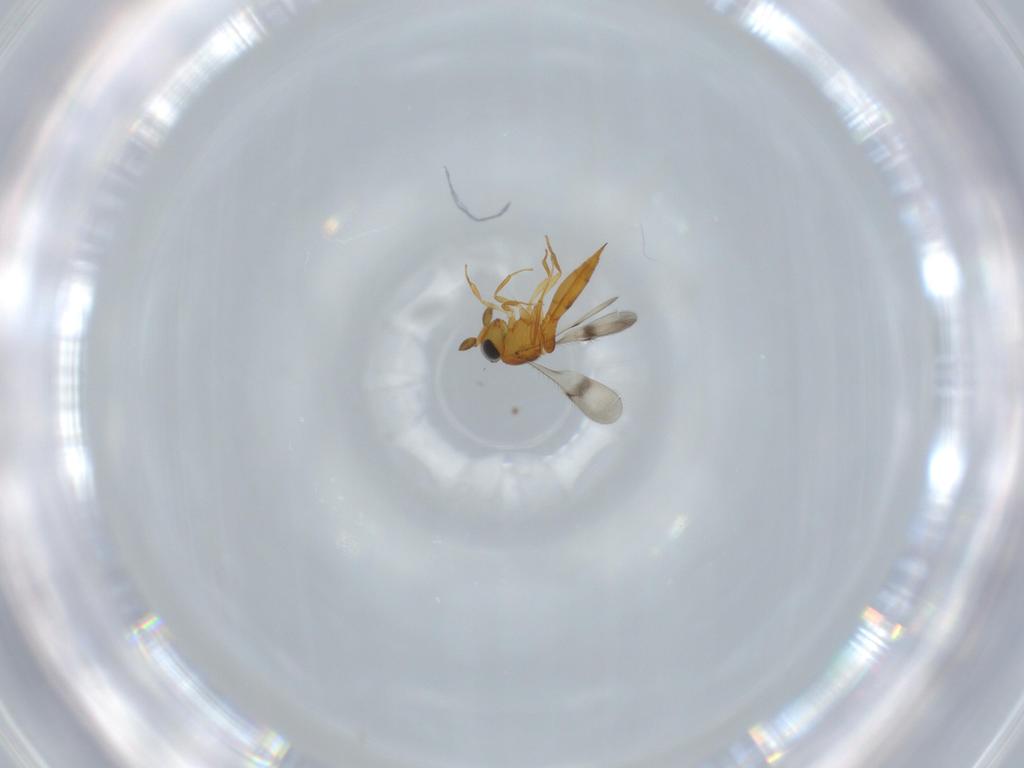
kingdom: Animalia
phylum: Arthropoda
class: Insecta
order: Hymenoptera
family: Scelionidae
